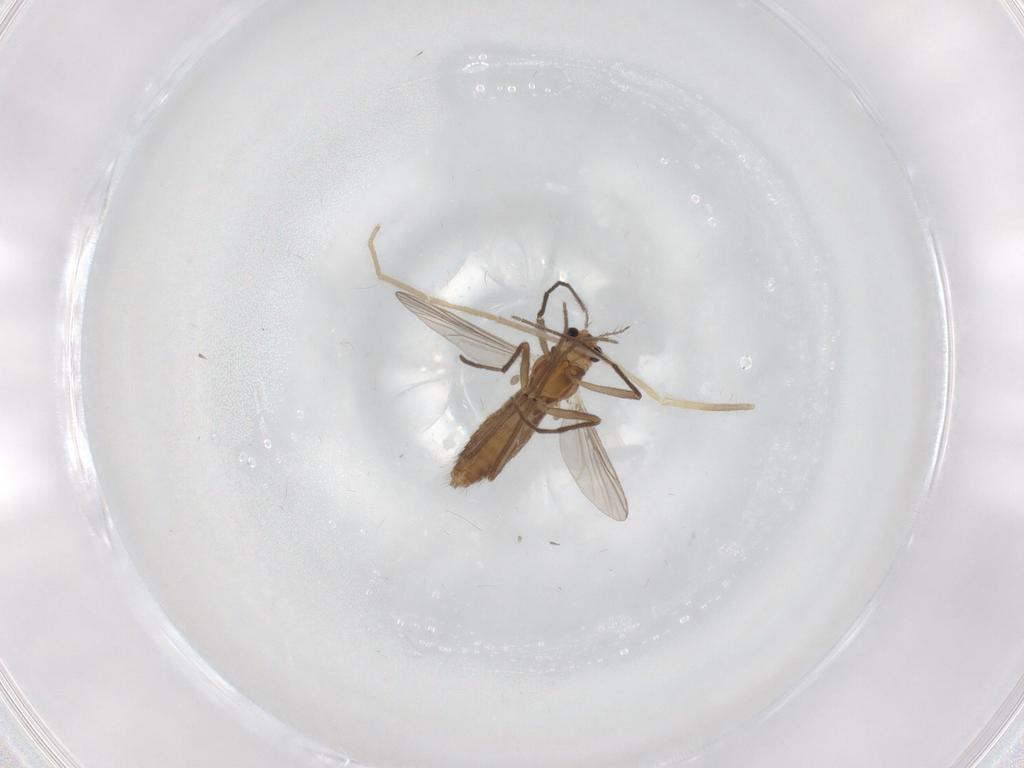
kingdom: Animalia
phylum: Arthropoda
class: Insecta
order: Diptera
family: Chironomidae
